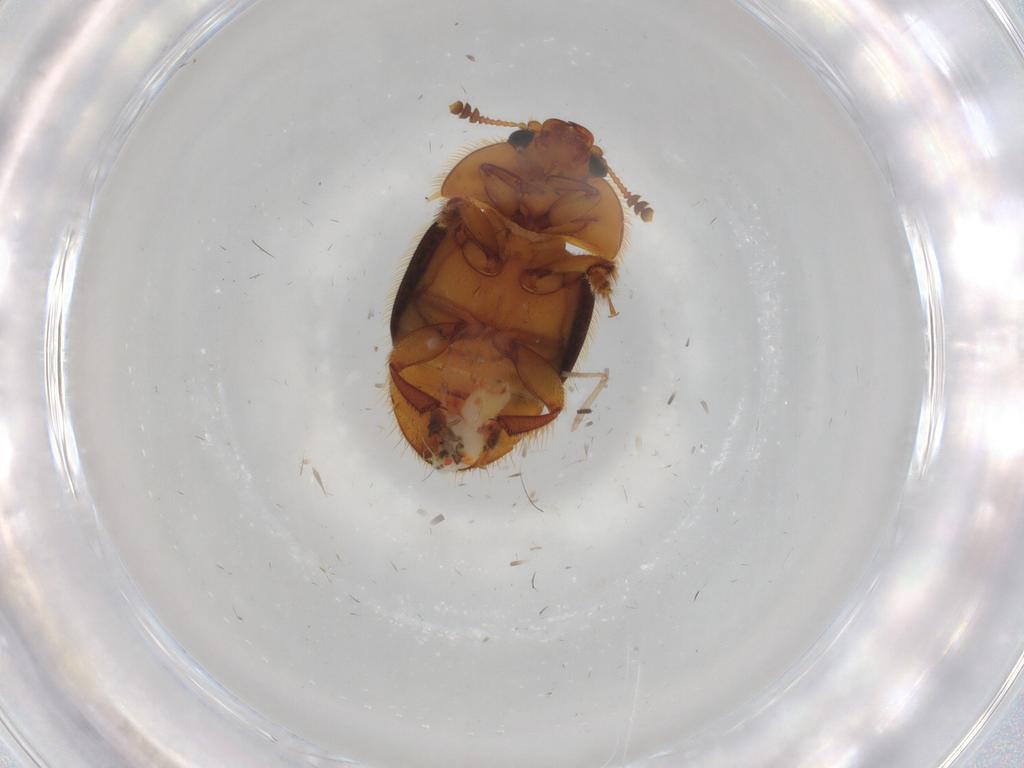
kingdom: Animalia
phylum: Arthropoda
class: Insecta
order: Coleoptera
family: Nitidulidae
